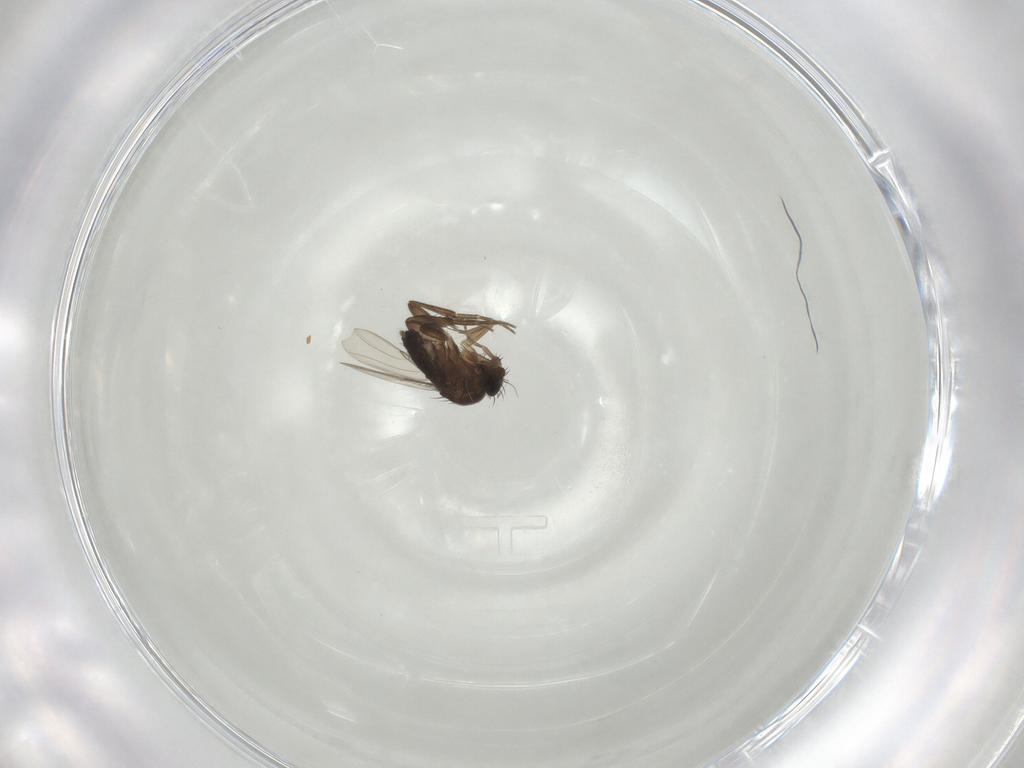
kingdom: Animalia
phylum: Arthropoda
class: Insecta
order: Diptera
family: Phoridae
